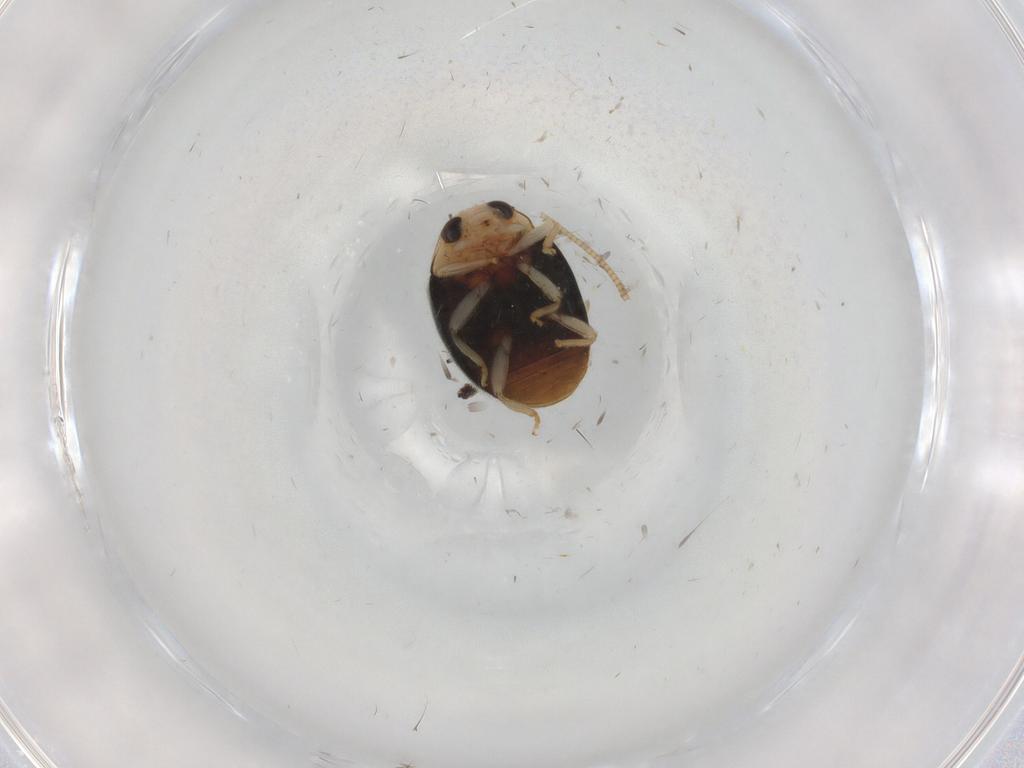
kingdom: Animalia
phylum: Arthropoda
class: Insecta
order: Coleoptera
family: Coccinellidae
